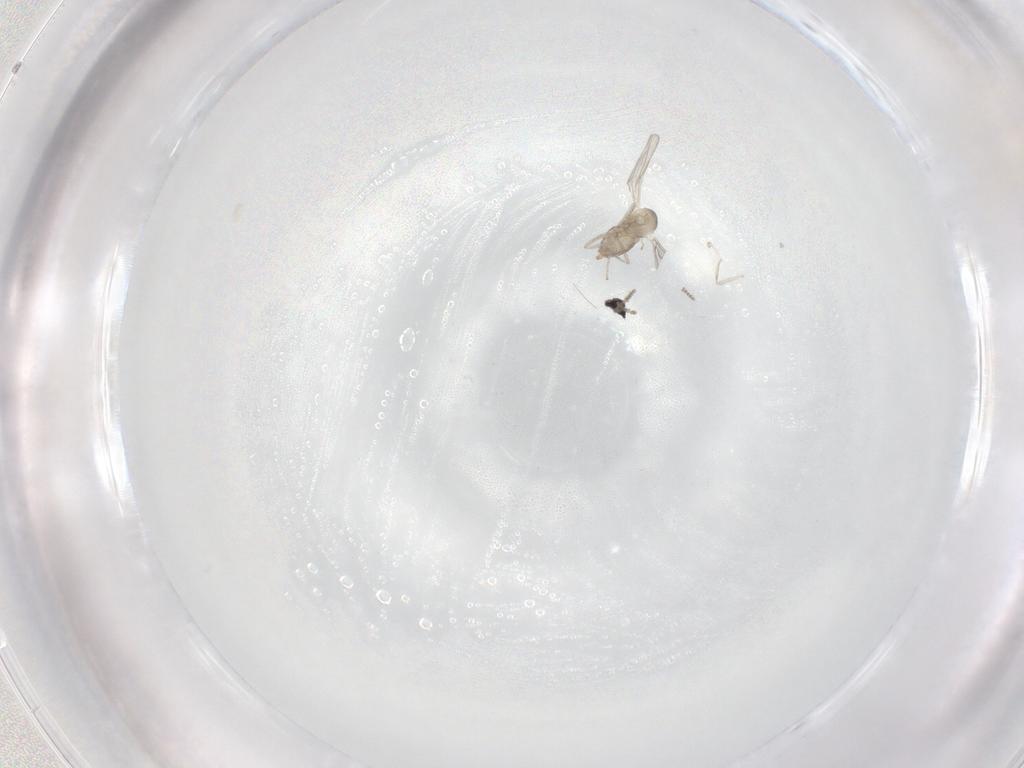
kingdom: Animalia
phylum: Arthropoda
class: Insecta
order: Diptera
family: Cecidomyiidae
